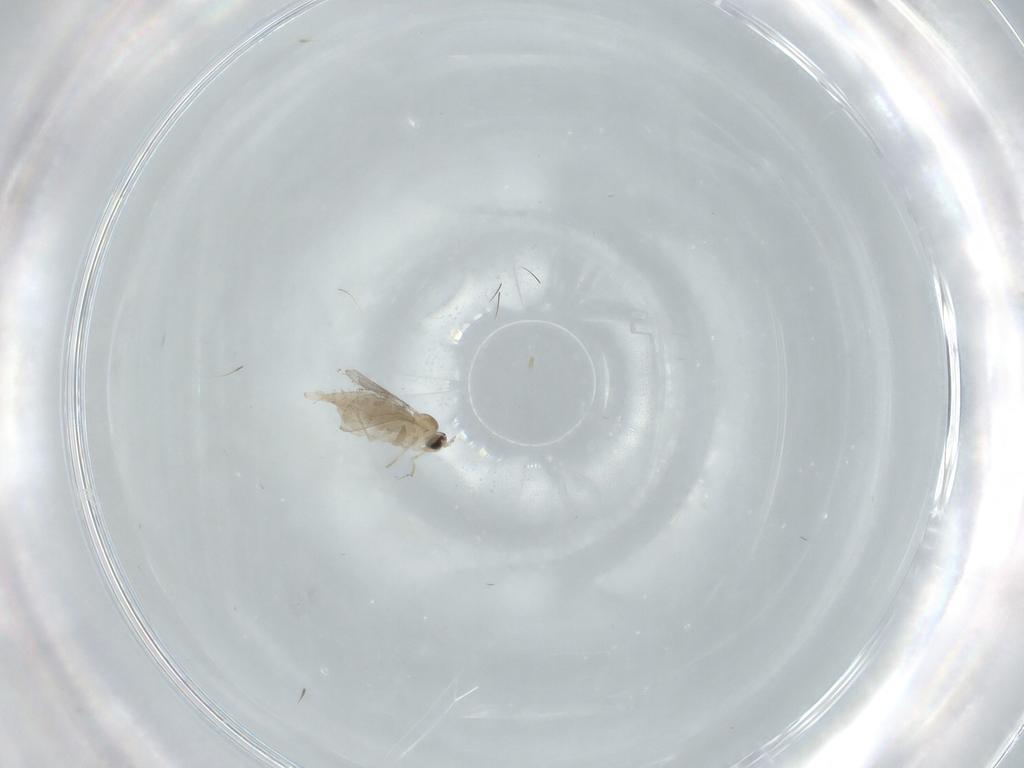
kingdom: Animalia
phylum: Arthropoda
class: Insecta
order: Diptera
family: Cecidomyiidae
